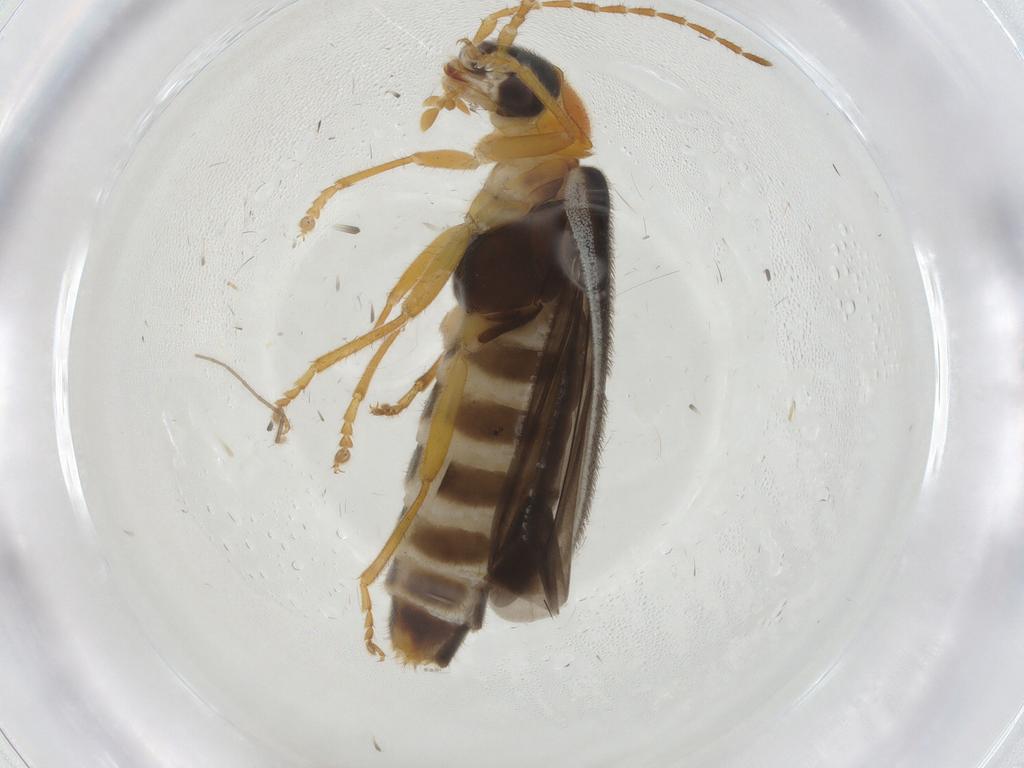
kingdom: Animalia
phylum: Arthropoda
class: Insecta
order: Coleoptera
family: Cantharidae
